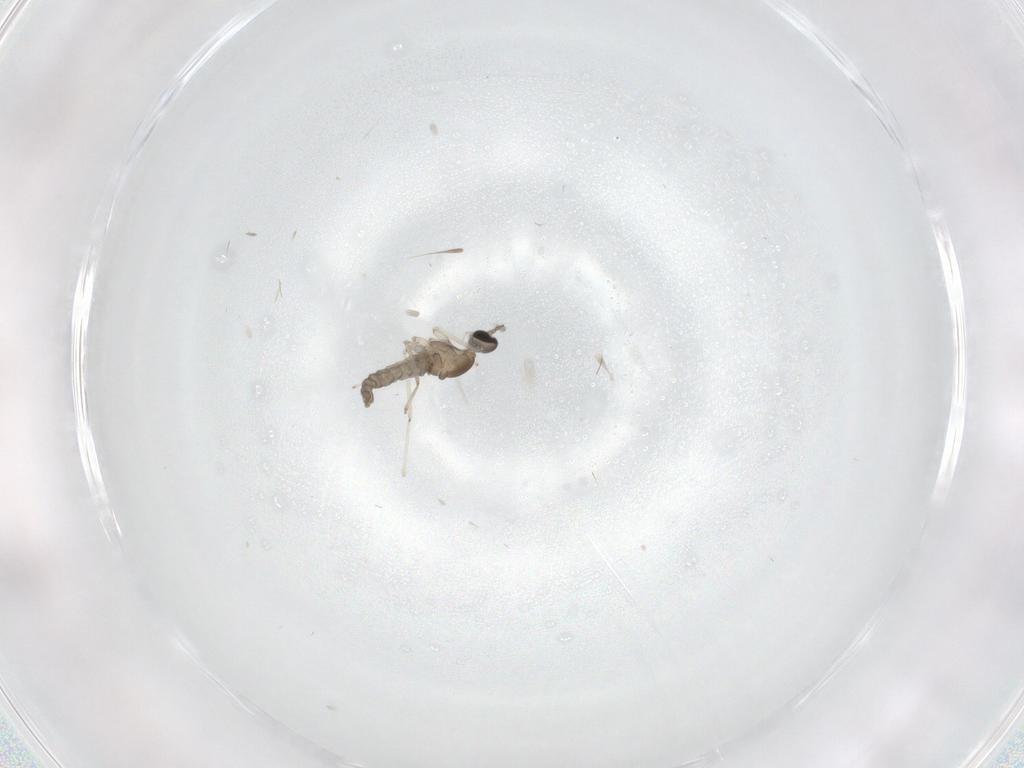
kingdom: Animalia
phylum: Arthropoda
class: Insecta
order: Diptera
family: Cecidomyiidae
